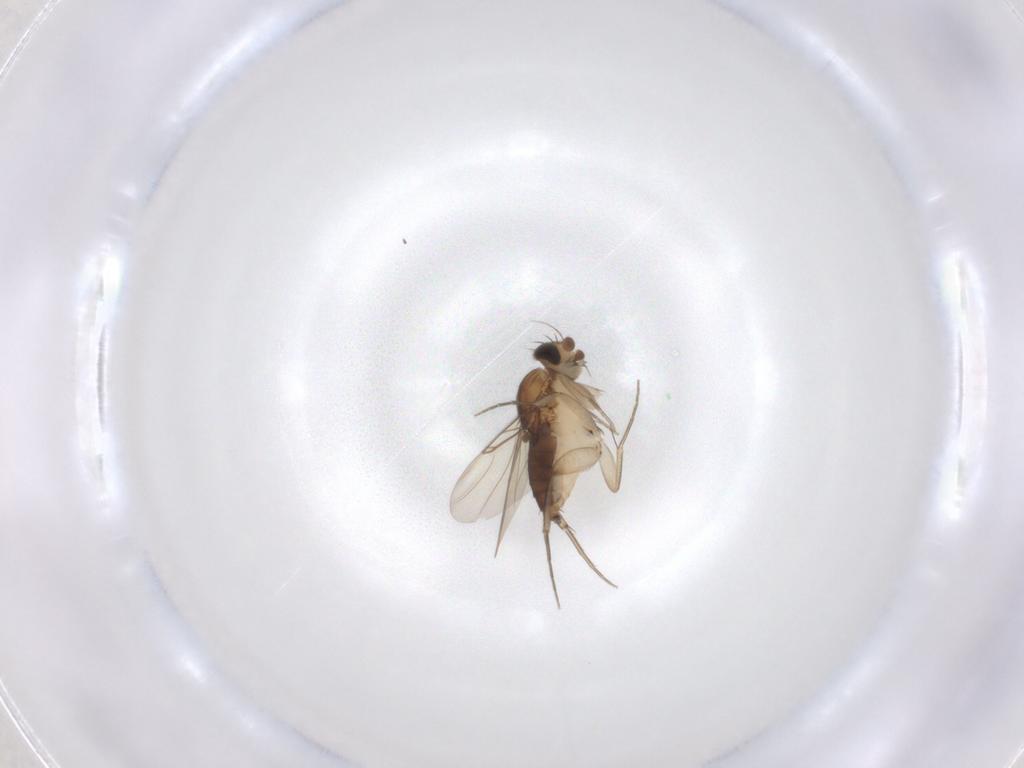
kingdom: Animalia
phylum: Arthropoda
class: Insecta
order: Diptera
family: Phoridae
